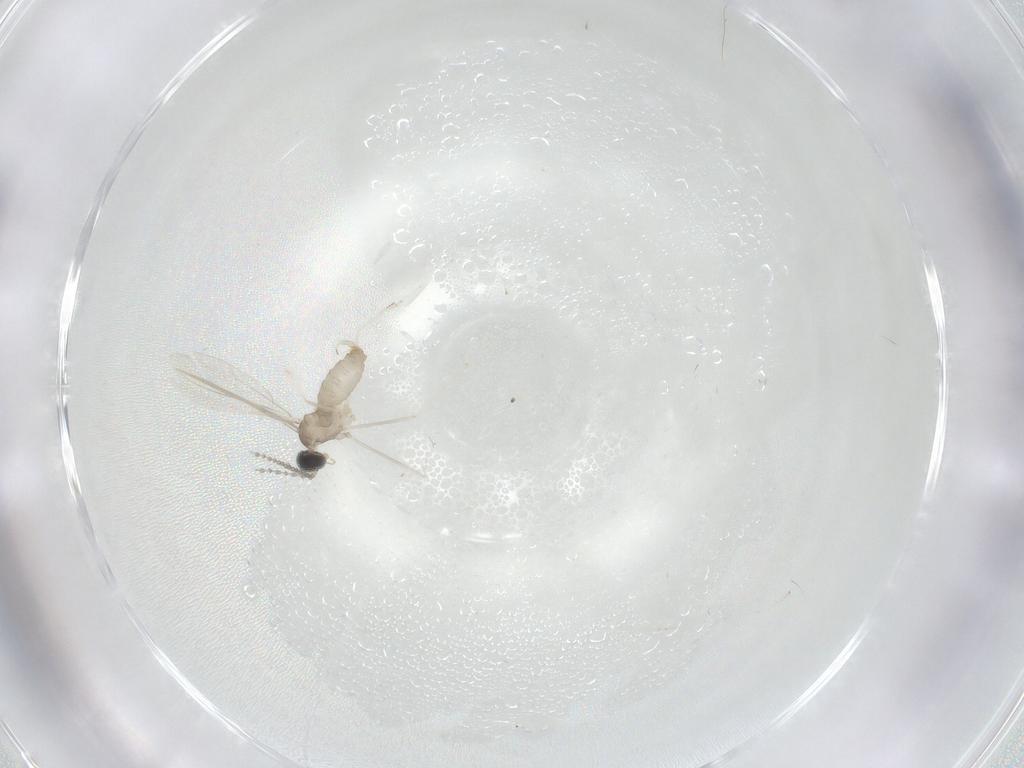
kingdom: Animalia
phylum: Arthropoda
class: Insecta
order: Diptera
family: Cecidomyiidae
